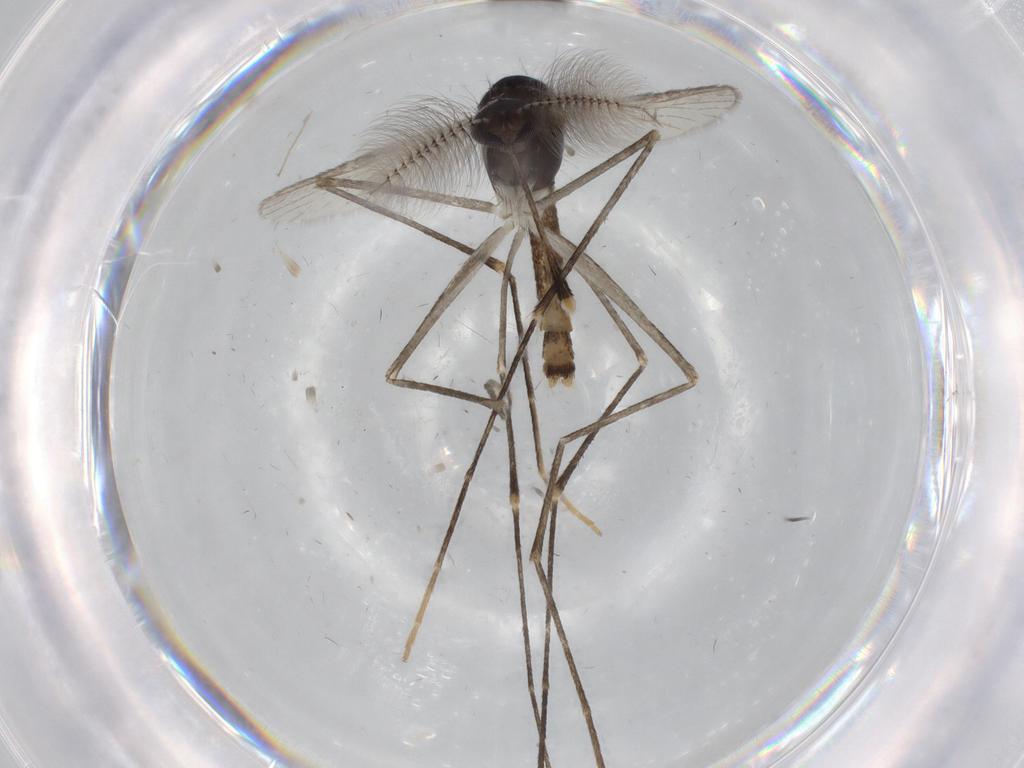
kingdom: Animalia
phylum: Arthropoda
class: Insecta
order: Diptera
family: Culicidae
